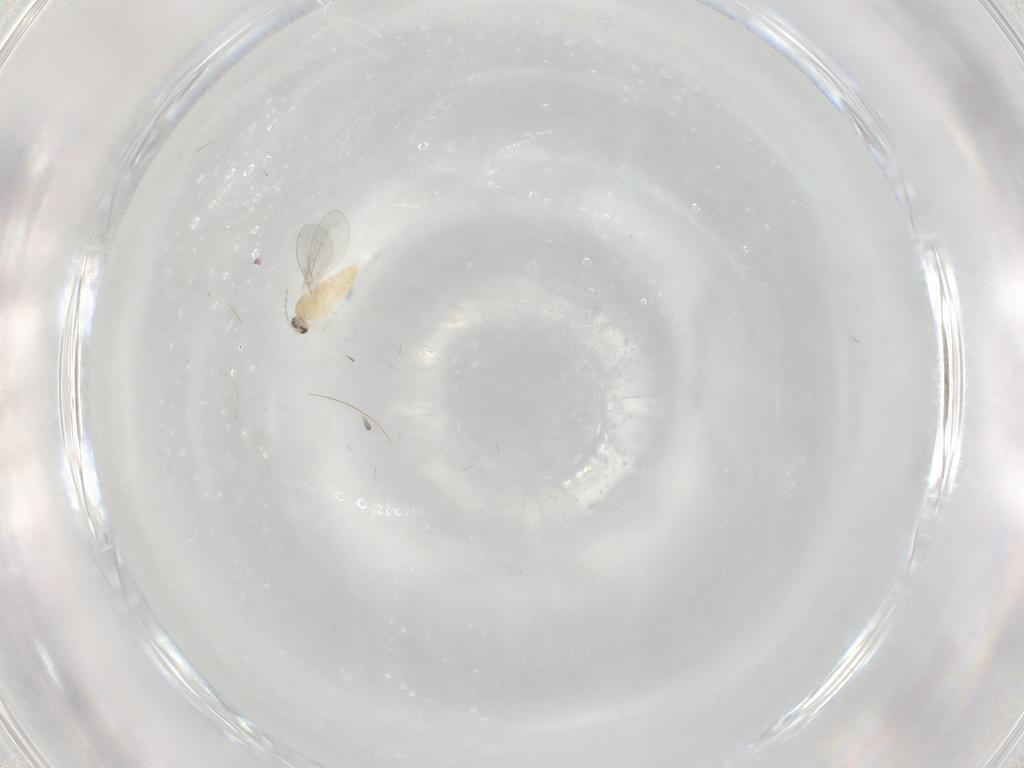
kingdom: Animalia
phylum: Arthropoda
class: Insecta
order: Diptera
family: Cecidomyiidae
